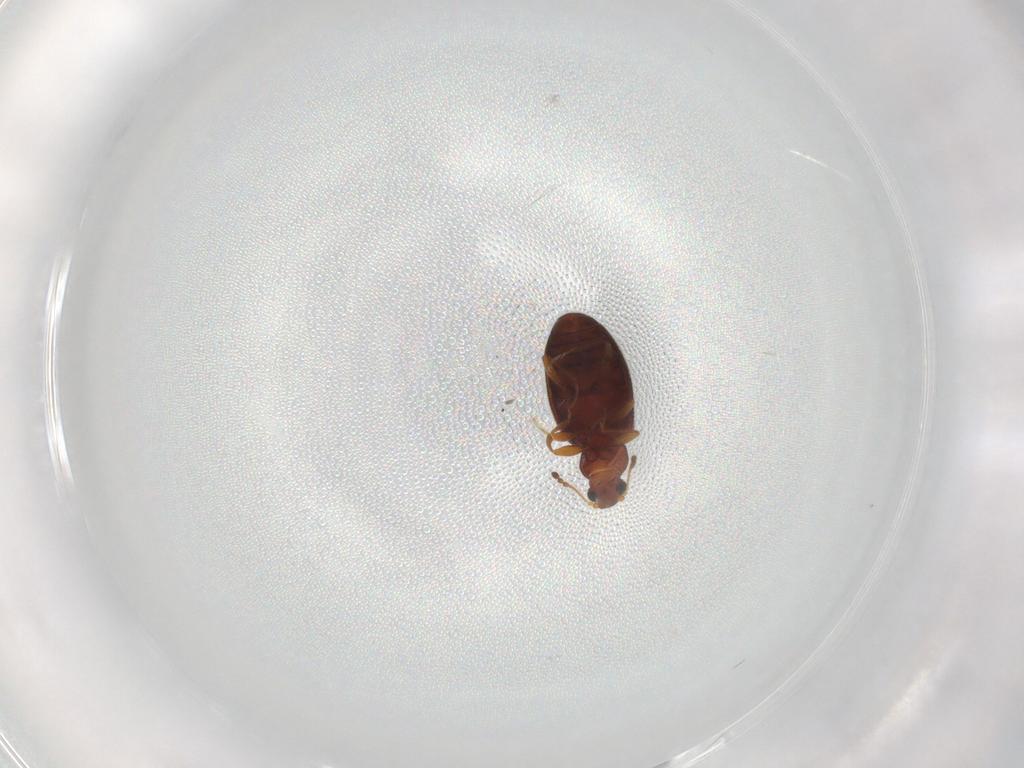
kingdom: Animalia
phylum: Arthropoda
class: Insecta
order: Coleoptera
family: Latridiidae
